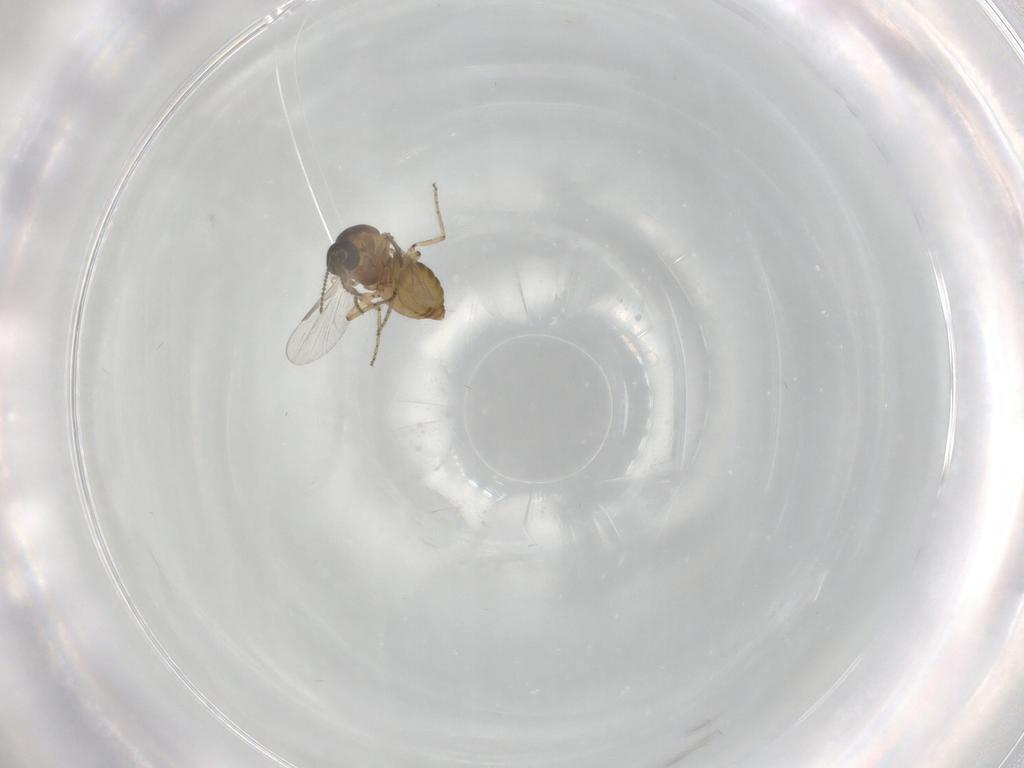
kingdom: Animalia
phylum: Arthropoda
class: Insecta
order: Diptera
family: Ceratopogonidae
